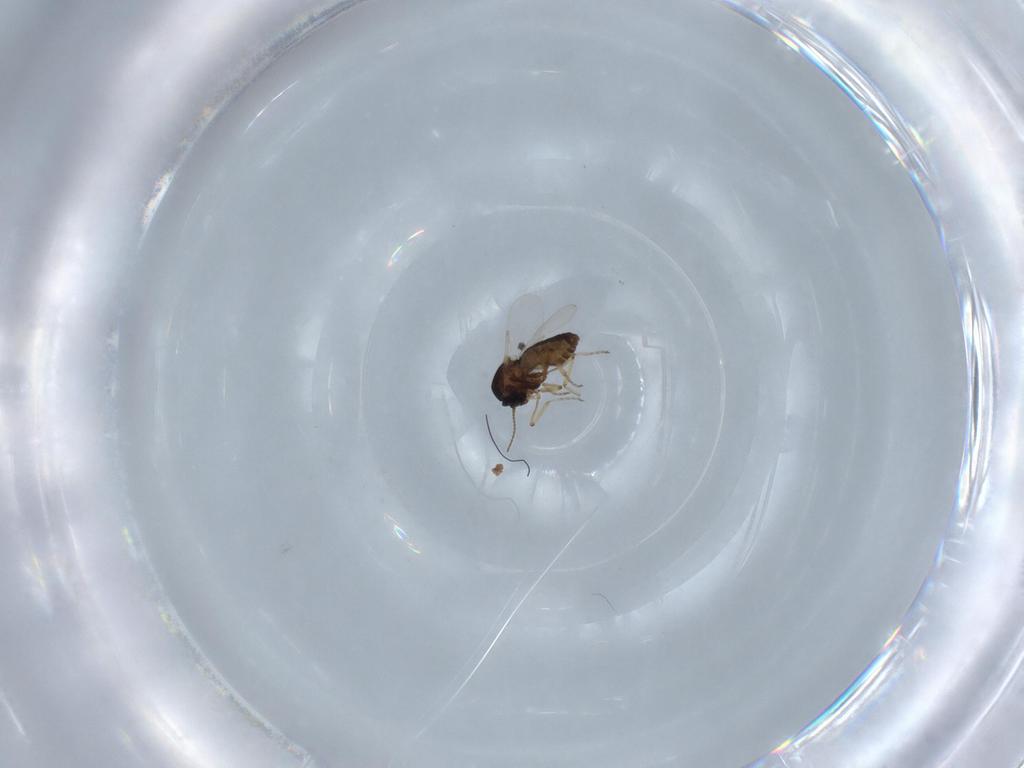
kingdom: Animalia
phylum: Arthropoda
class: Insecta
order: Diptera
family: Ceratopogonidae
